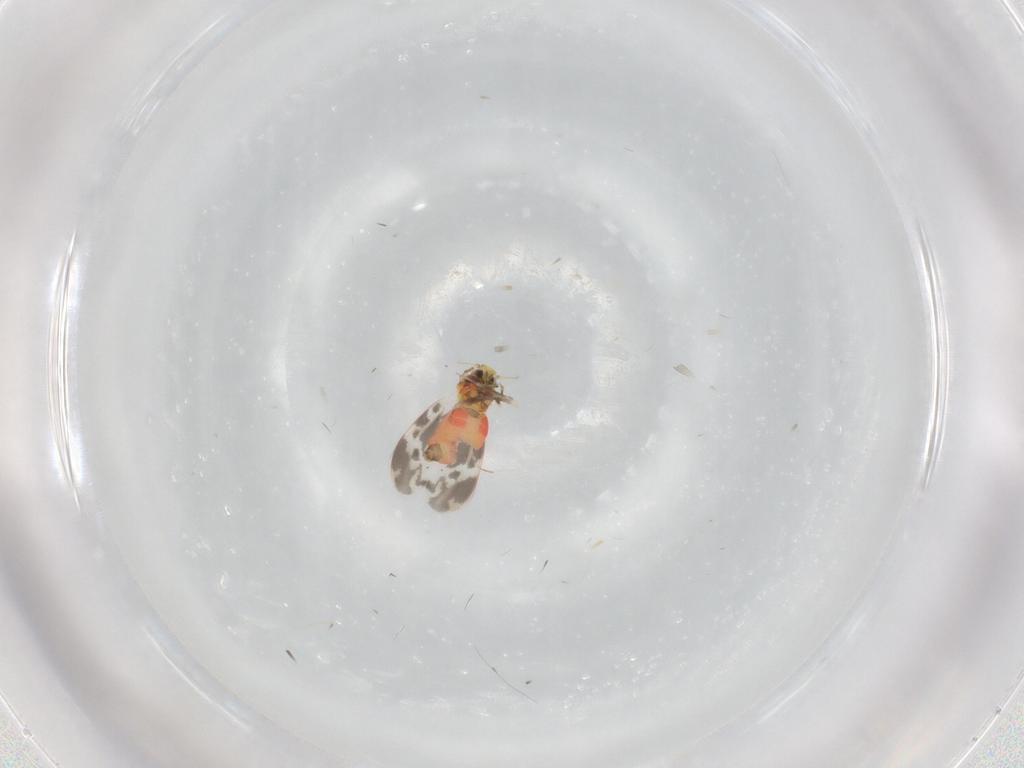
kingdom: Animalia
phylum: Arthropoda
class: Insecta
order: Hemiptera
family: Aleyrodidae
